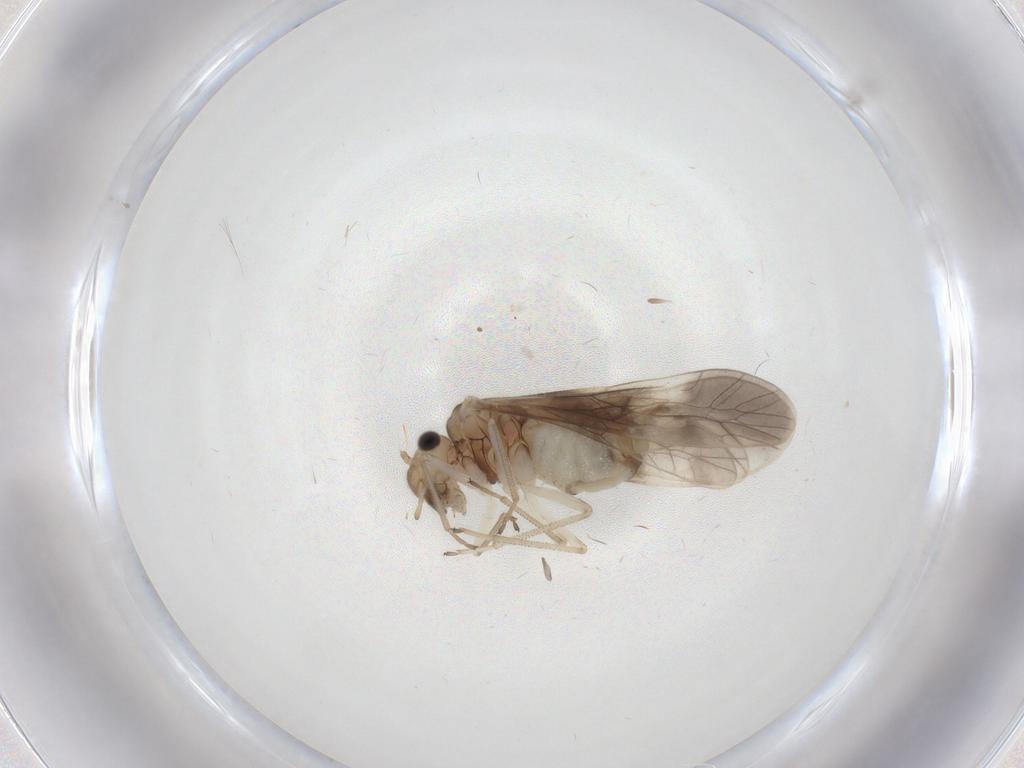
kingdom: Animalia
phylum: Arthropoda
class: Insecta
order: Psocodea
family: Caeciliusidae
